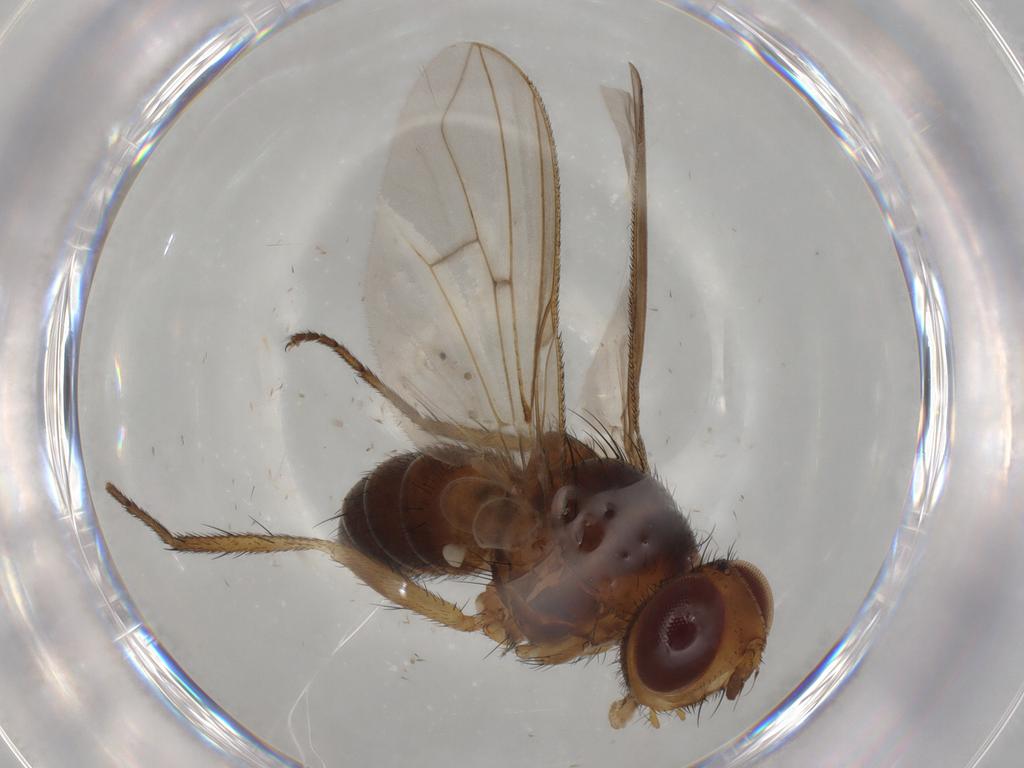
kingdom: Animalia
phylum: Arthropoda
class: Insecta
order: Diptera
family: Tachinidae
